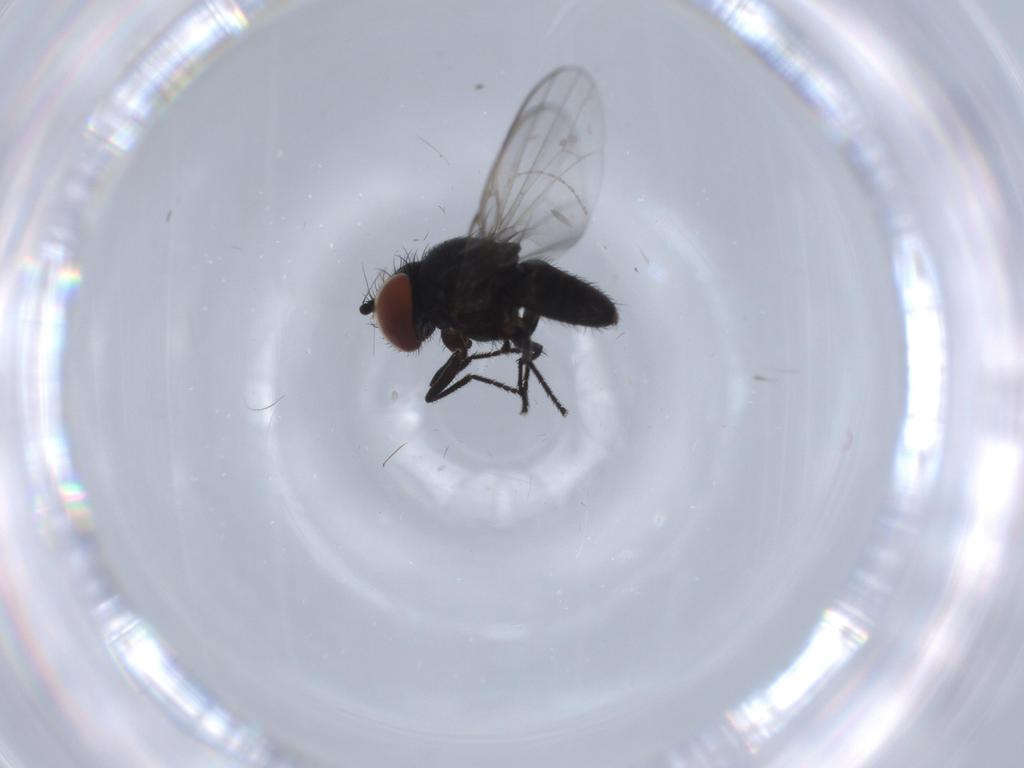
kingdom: Animalia
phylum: Arthropoda
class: Insecta
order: Diptera
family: Milichiidae
